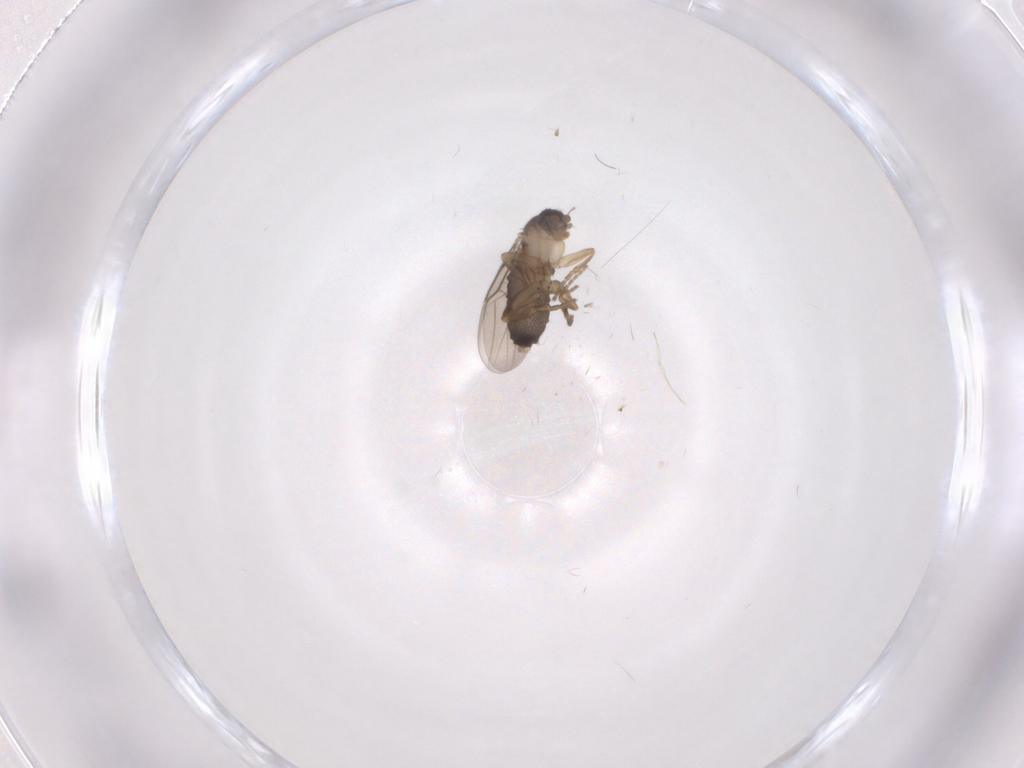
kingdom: Animalia
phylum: Arthropoda
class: Insecta
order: Diptera
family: Phoridae
